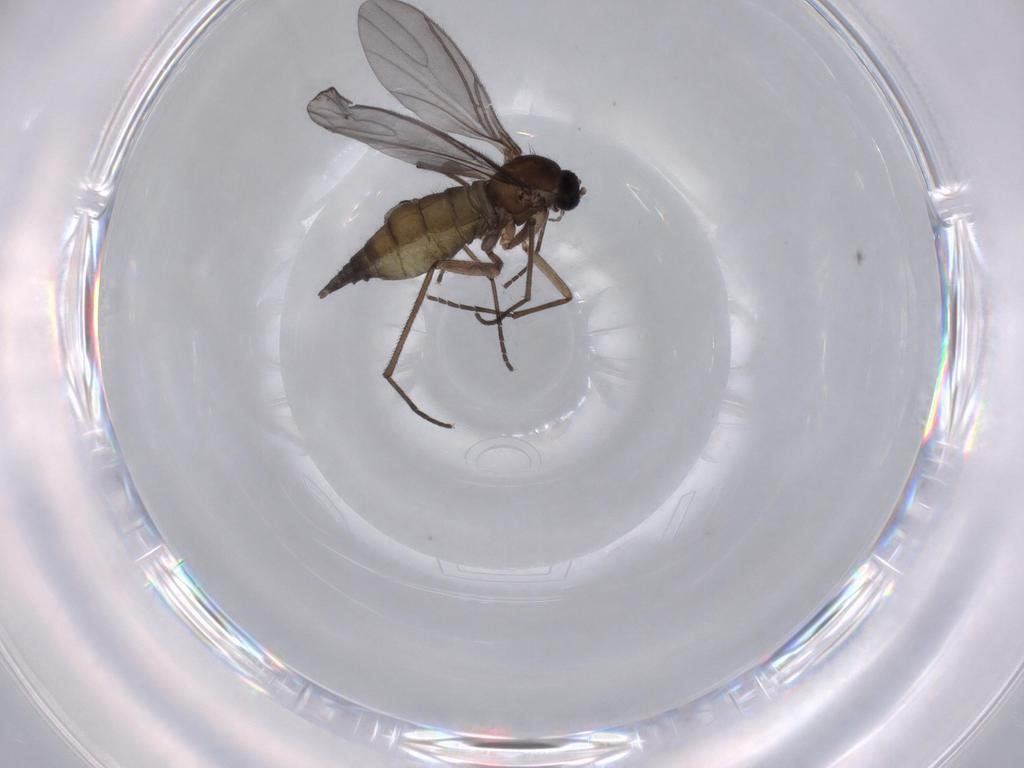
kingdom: Animalia
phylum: Arthropoda
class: Insecta
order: Diptera
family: Sciaridae
